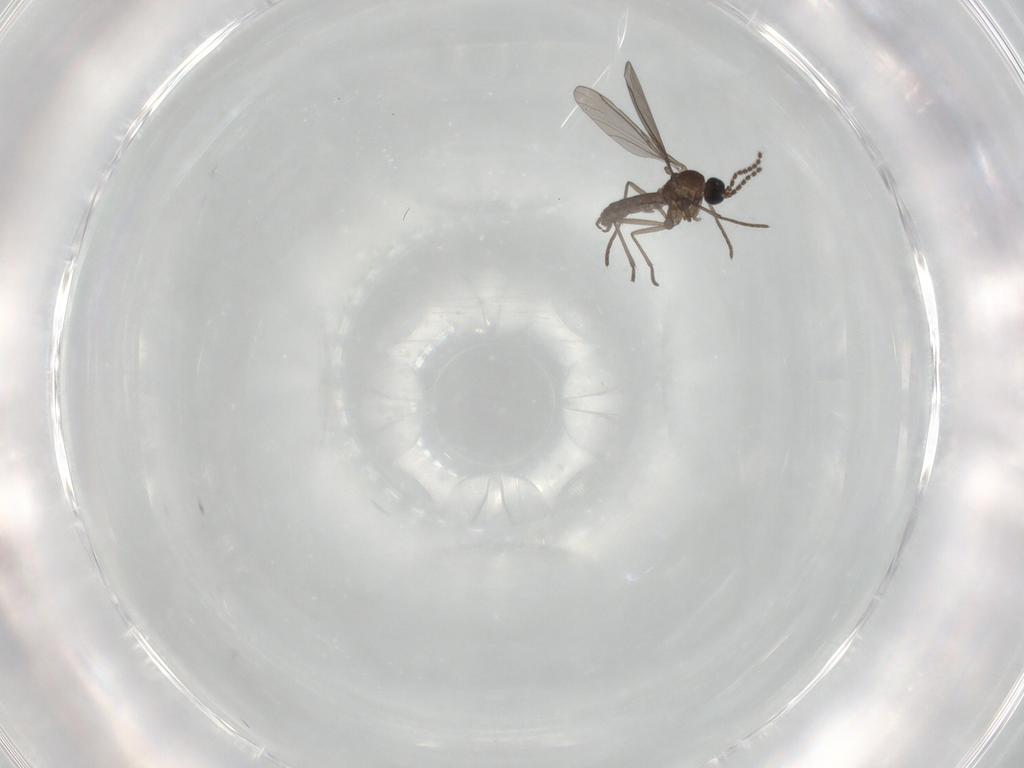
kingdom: Animalia
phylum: Arthropoda
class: Insecta
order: Diptera
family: Sciaridae
